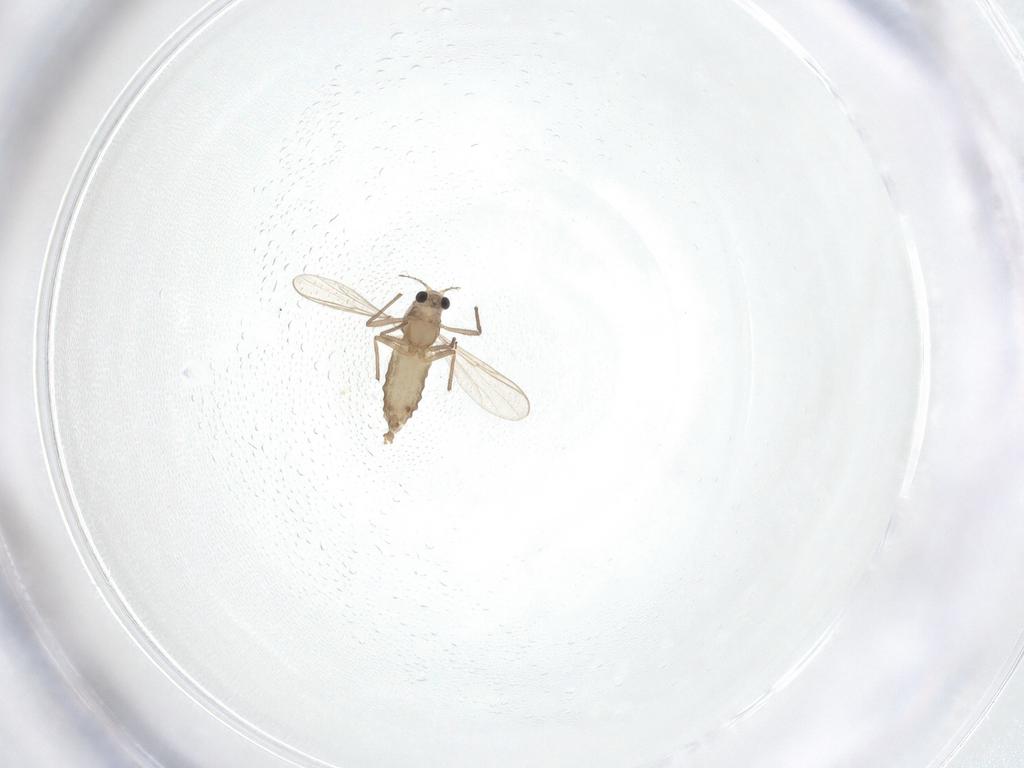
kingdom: Animalia
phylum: Arthropoda
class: Insecta
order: Diptera
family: Chironomidae
